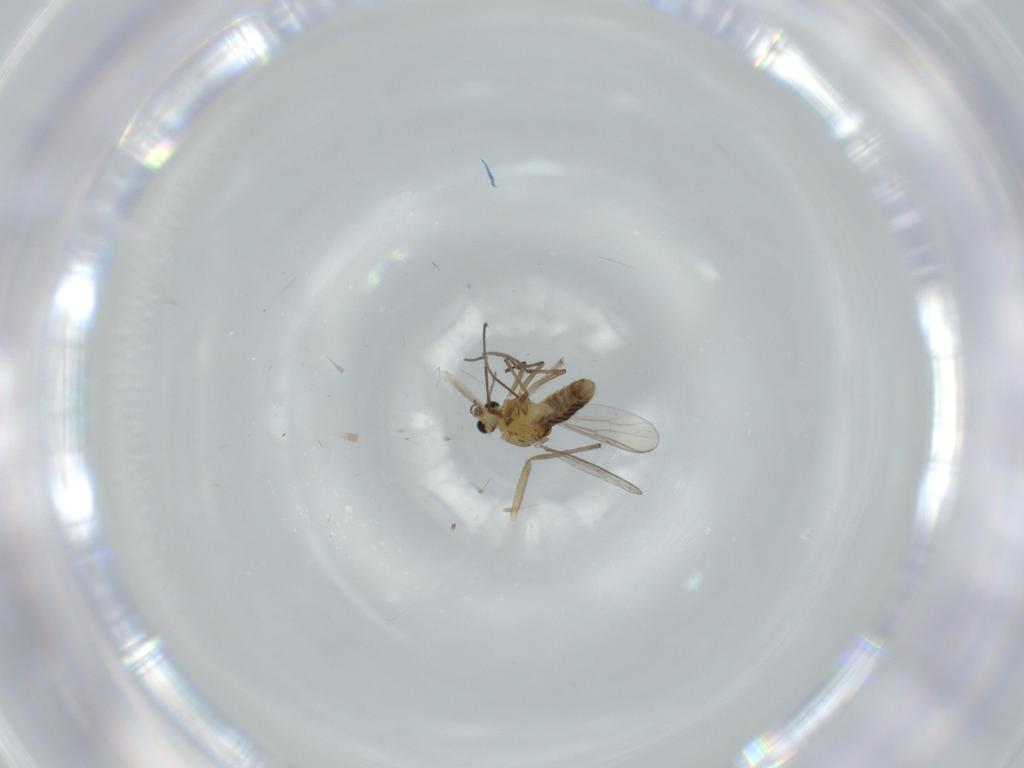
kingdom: Animalia
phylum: Arthropoda
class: Insecta
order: Diptera
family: Chironomidae
